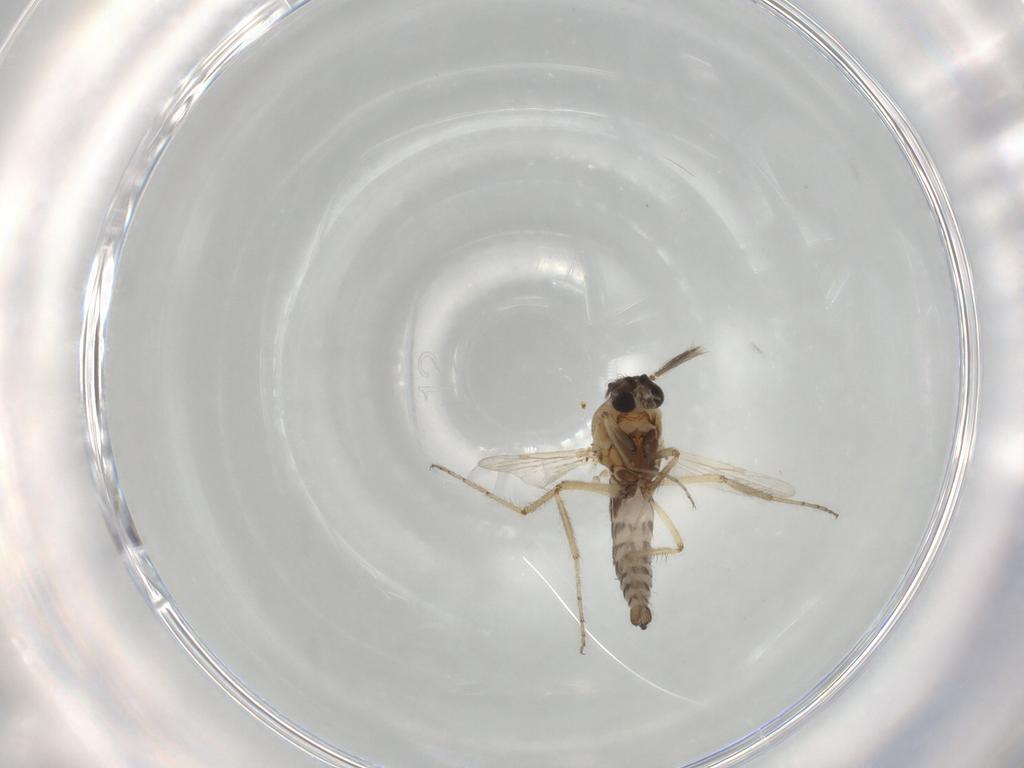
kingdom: Animalia
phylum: Arthropoda
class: Insecta
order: Diptera
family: Ceratopogonidae
